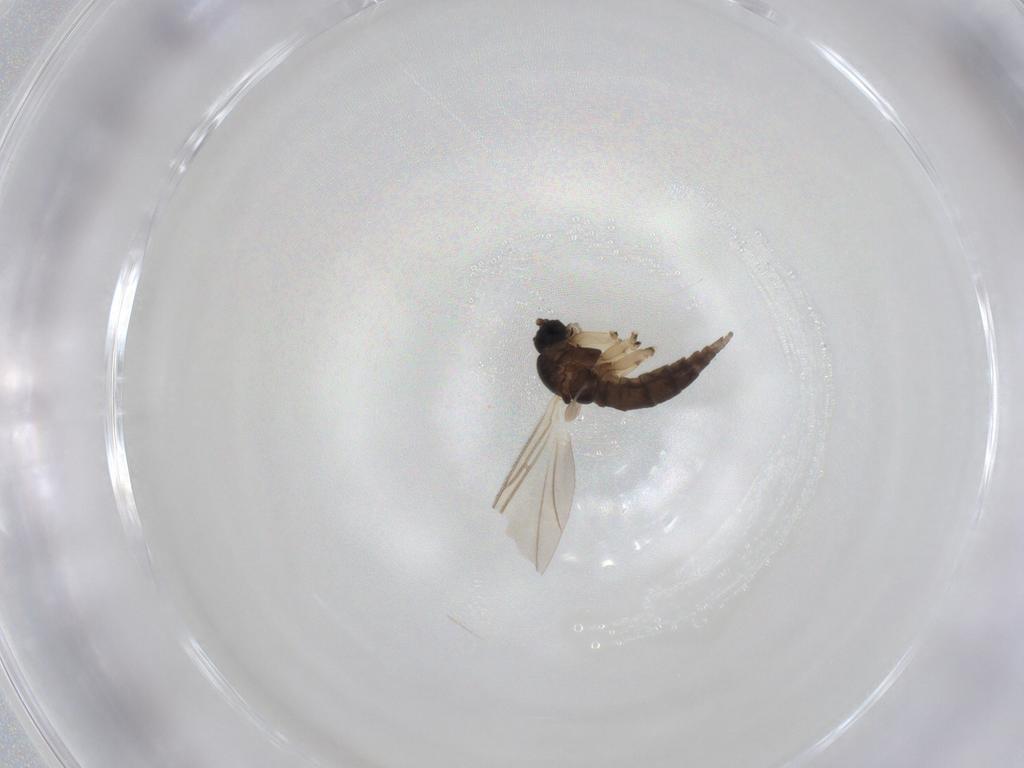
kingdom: Animalia
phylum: Arthropoda
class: Insecta
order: Diptera
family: Sciaridae
